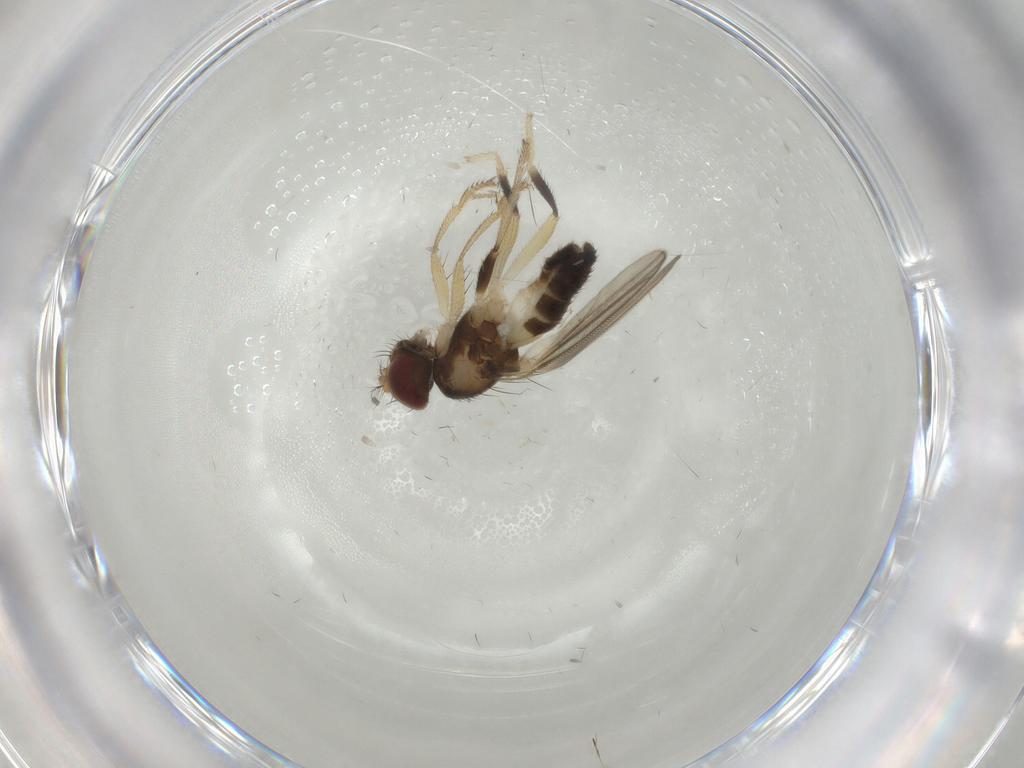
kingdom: Animalia
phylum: Arthropoda
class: Insecta
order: Diptera
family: Periscelididae
